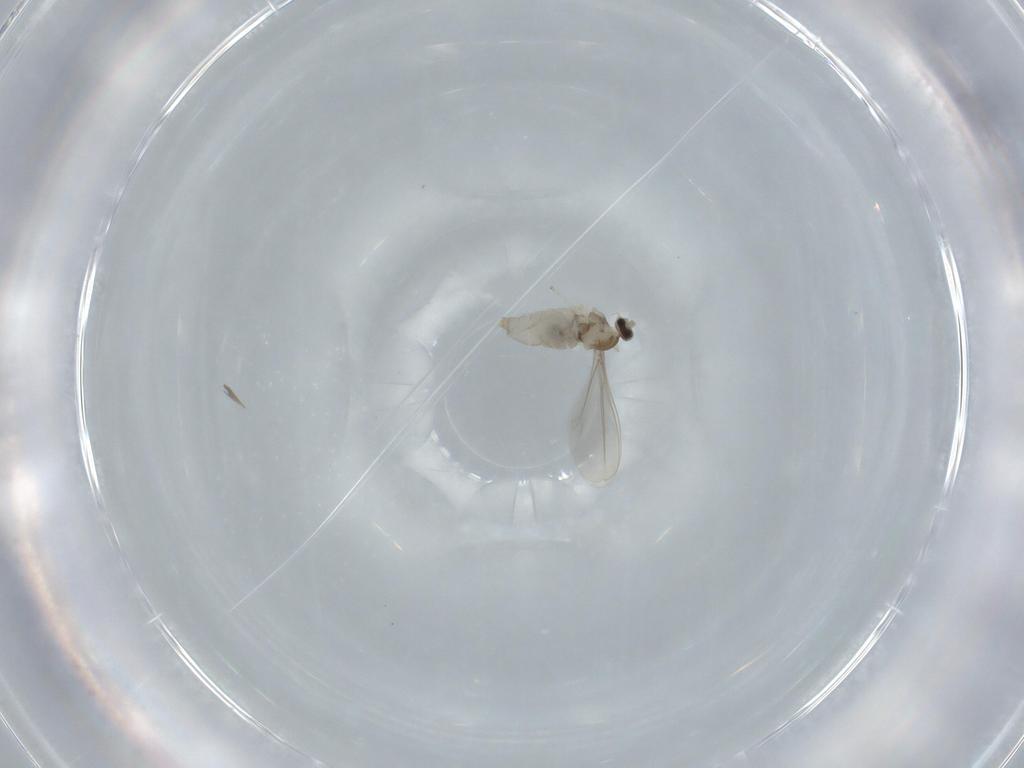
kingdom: Animalia
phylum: Arthropoda
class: Insecta
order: Diptera
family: Cecidomyiidae
